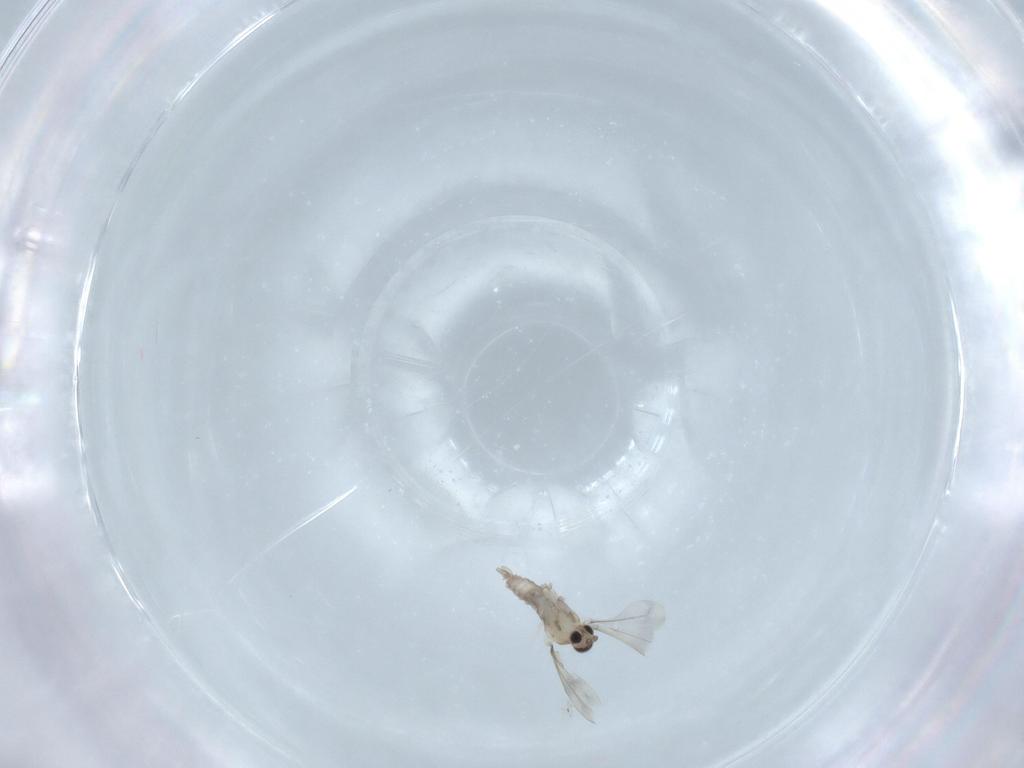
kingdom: Animalia
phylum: Arthropoda
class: Insecta
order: Diptera
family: Cecidomyiidae
